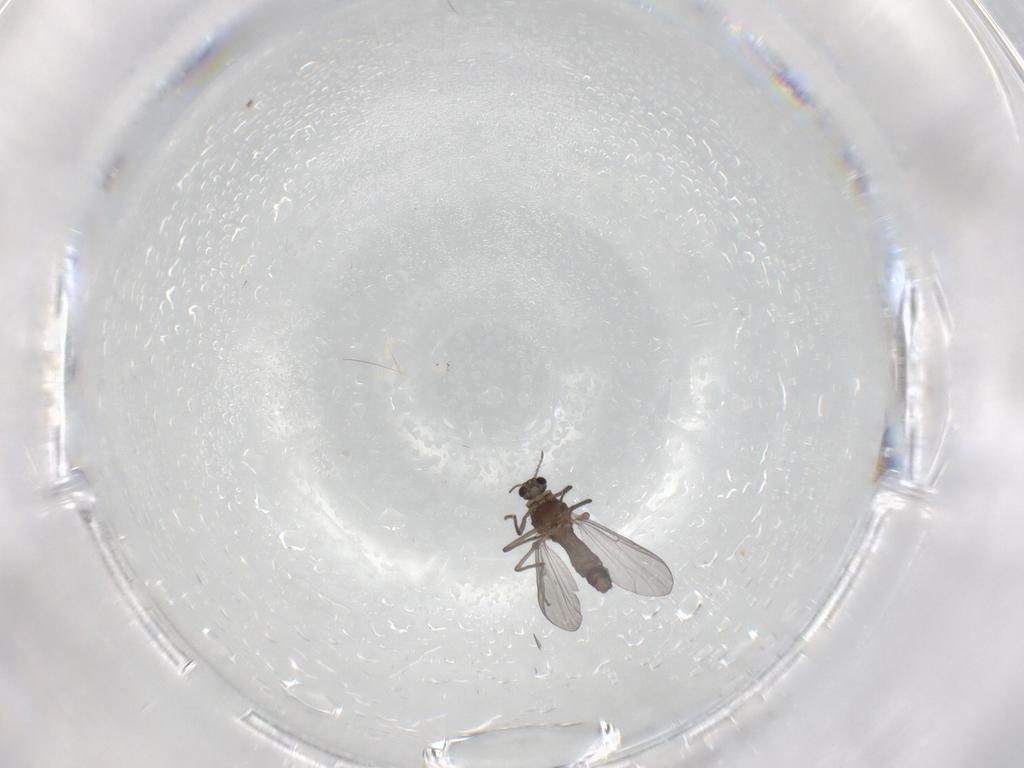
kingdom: Animalia
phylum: Arthropoda
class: Insecta
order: Diptera
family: Chironomidae
